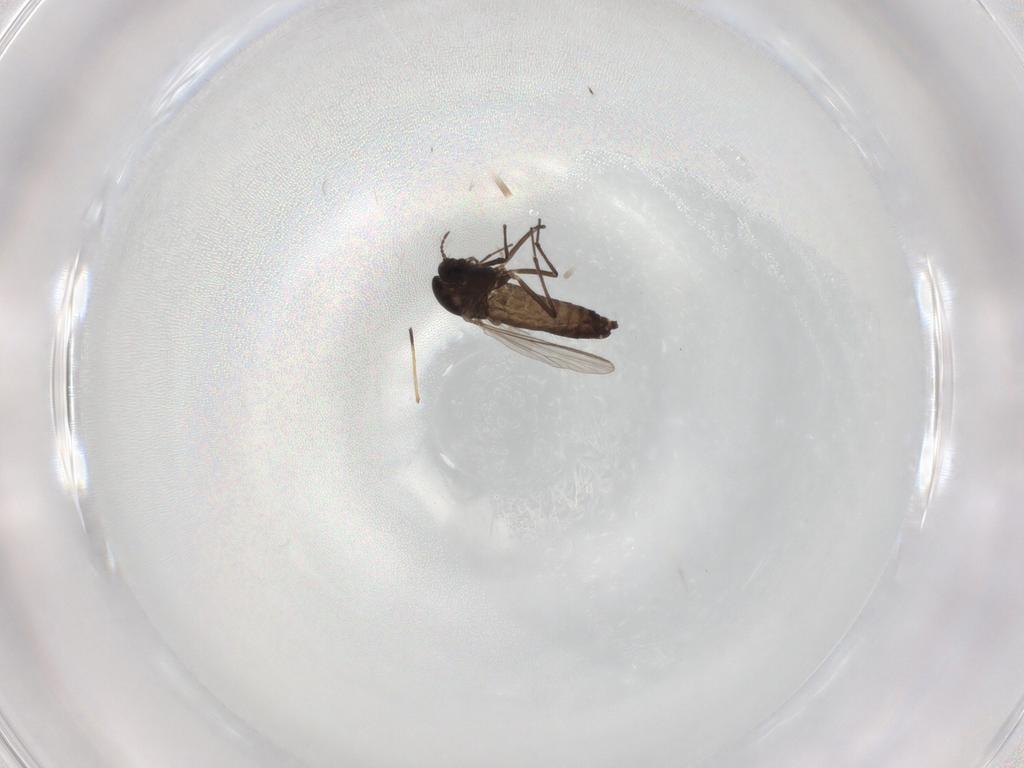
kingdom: Animalia
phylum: Arthropoda
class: Insecta
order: Diptera
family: Chironomidae
